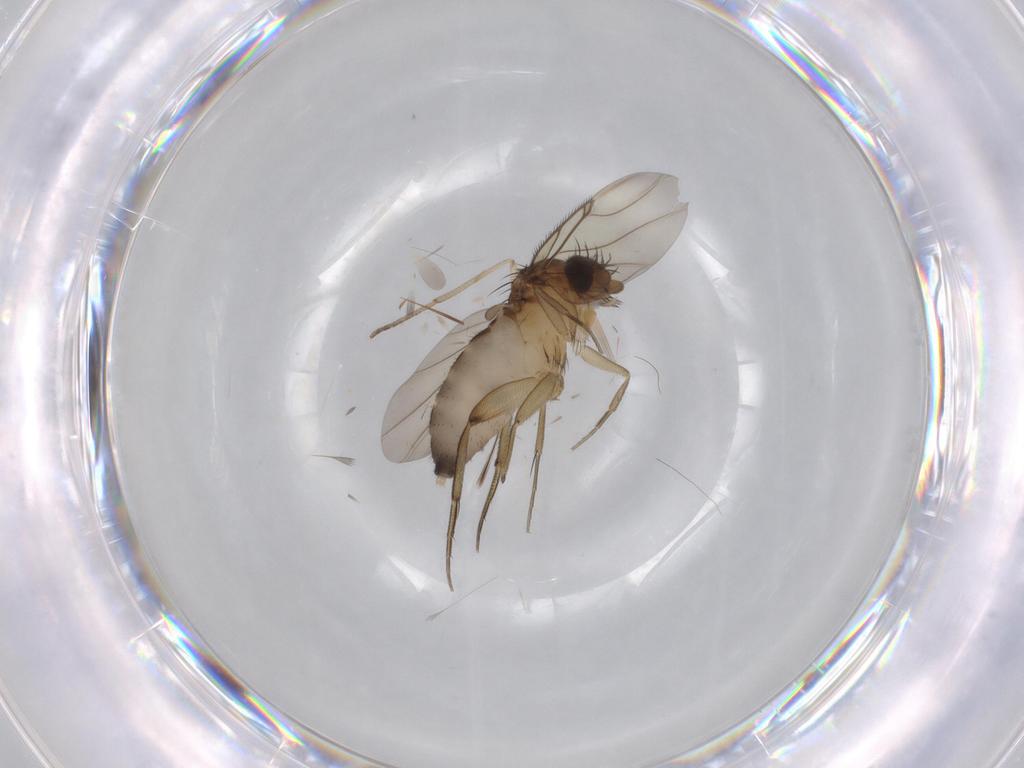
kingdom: Animalia
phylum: Arthropoda
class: Insecta
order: Diptera
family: Phoridae
